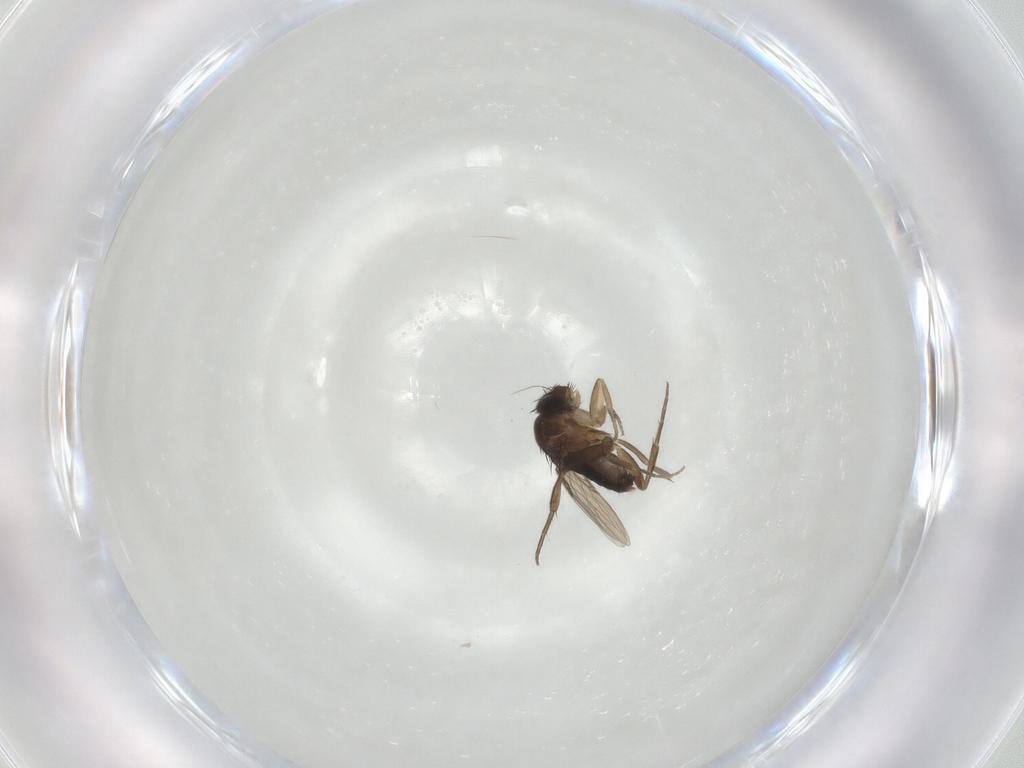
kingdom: Animalia
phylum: Arthropoda
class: Insecta
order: Diptera
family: Phoridae
